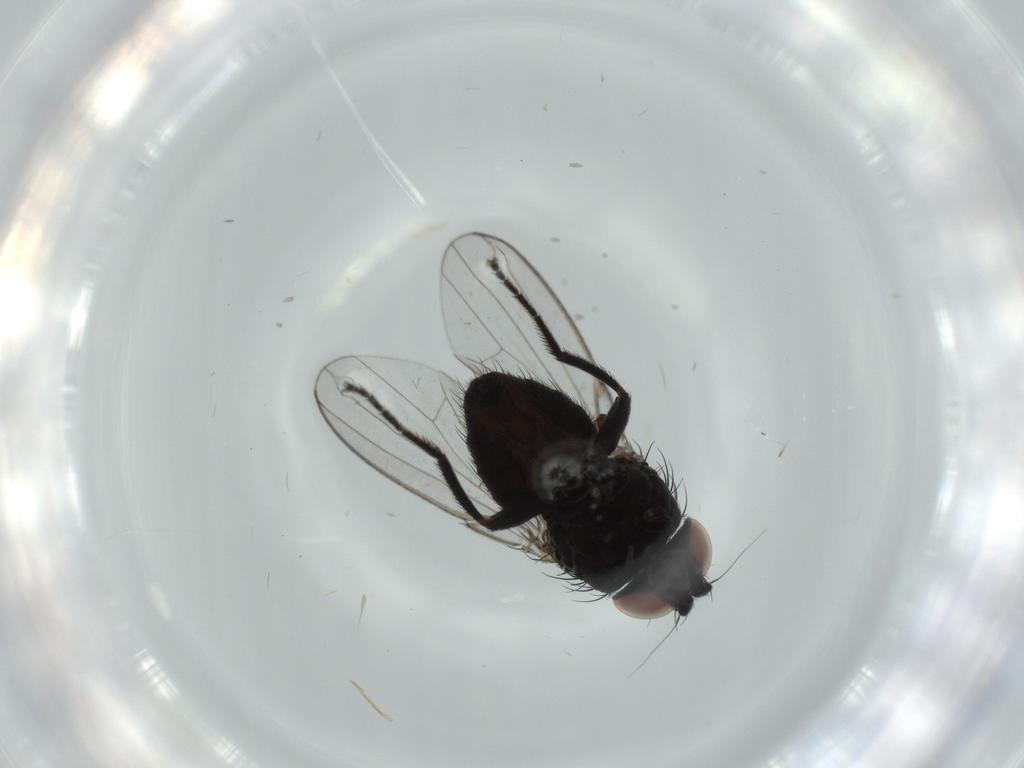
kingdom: Animalia
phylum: Arthropoda
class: Insecta
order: Diptera
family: Milichiidae
